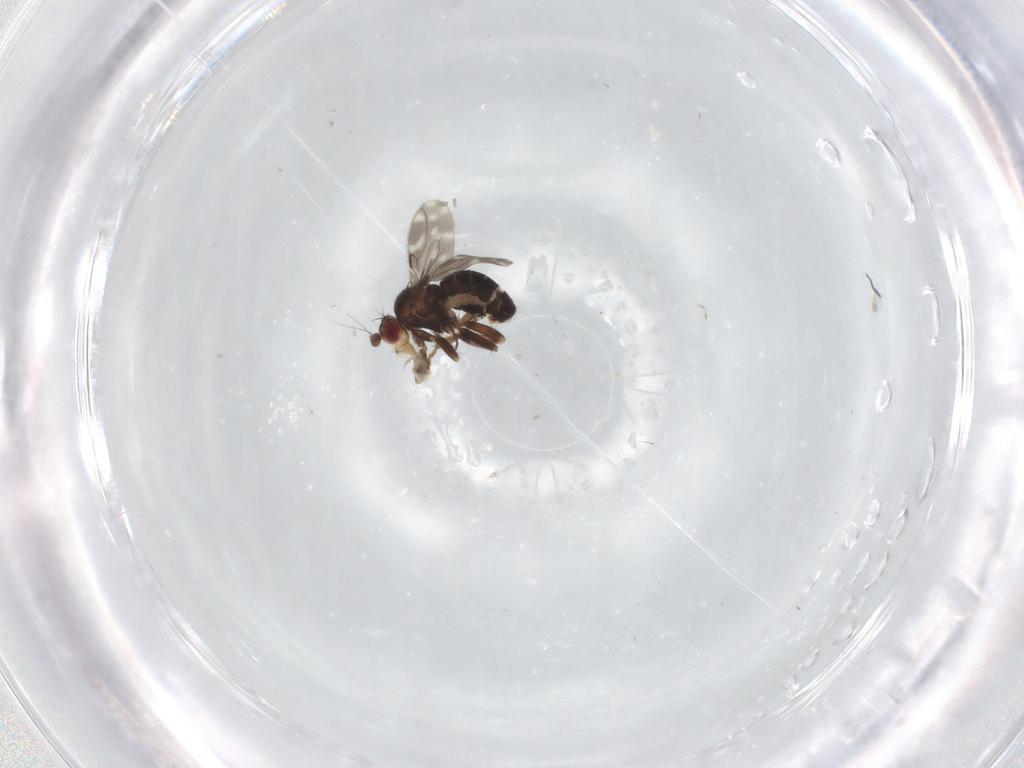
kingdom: Animalia
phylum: Arthropoda
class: Insecta
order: Diptera
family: Sphaeroceridae
